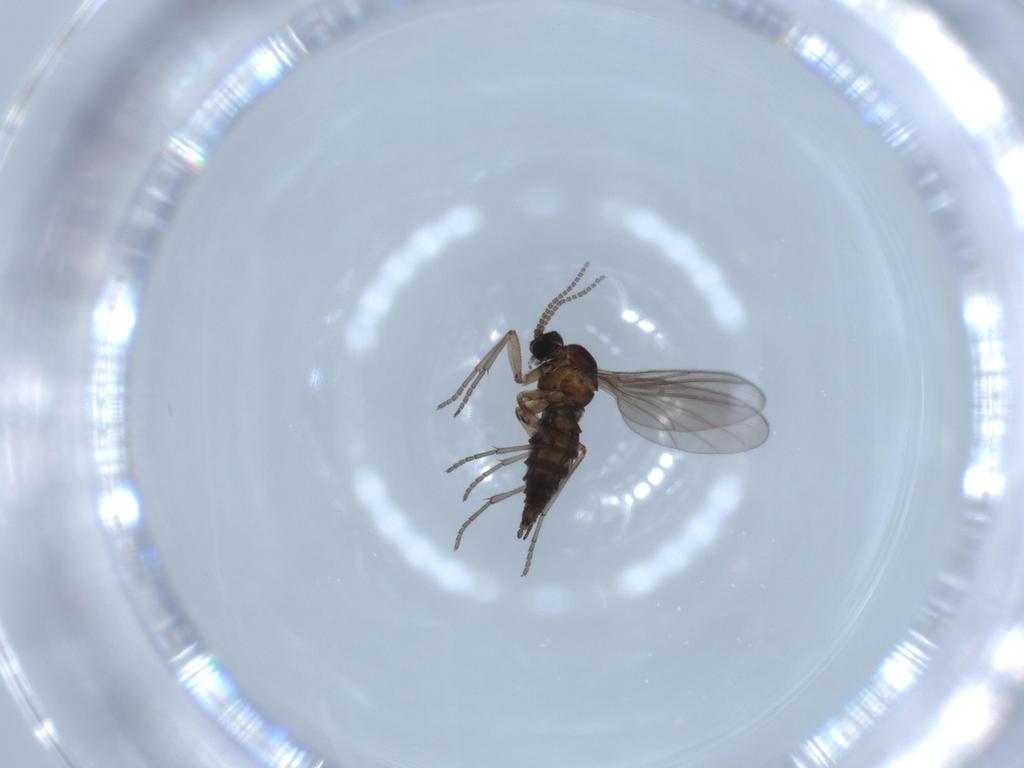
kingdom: Animalia
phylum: Arthropoda
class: Insecta
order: Diptera
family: Sciaridae
